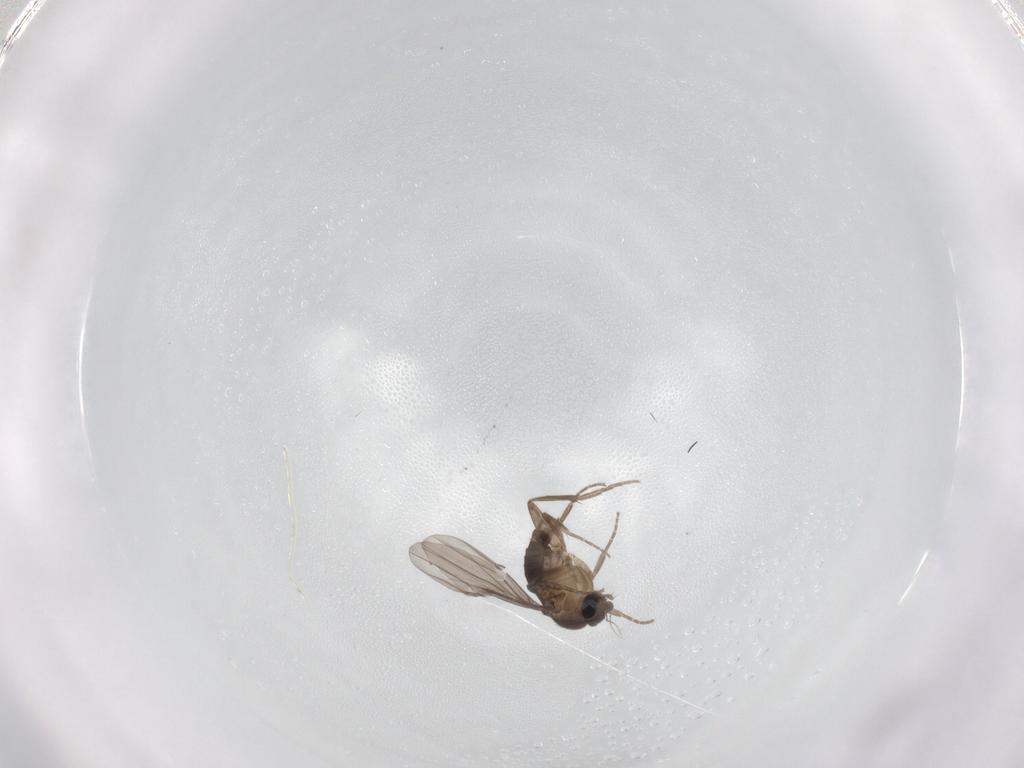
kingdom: Animalia
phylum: Arthropoda
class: Insecta
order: Diptera
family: Phoridae
